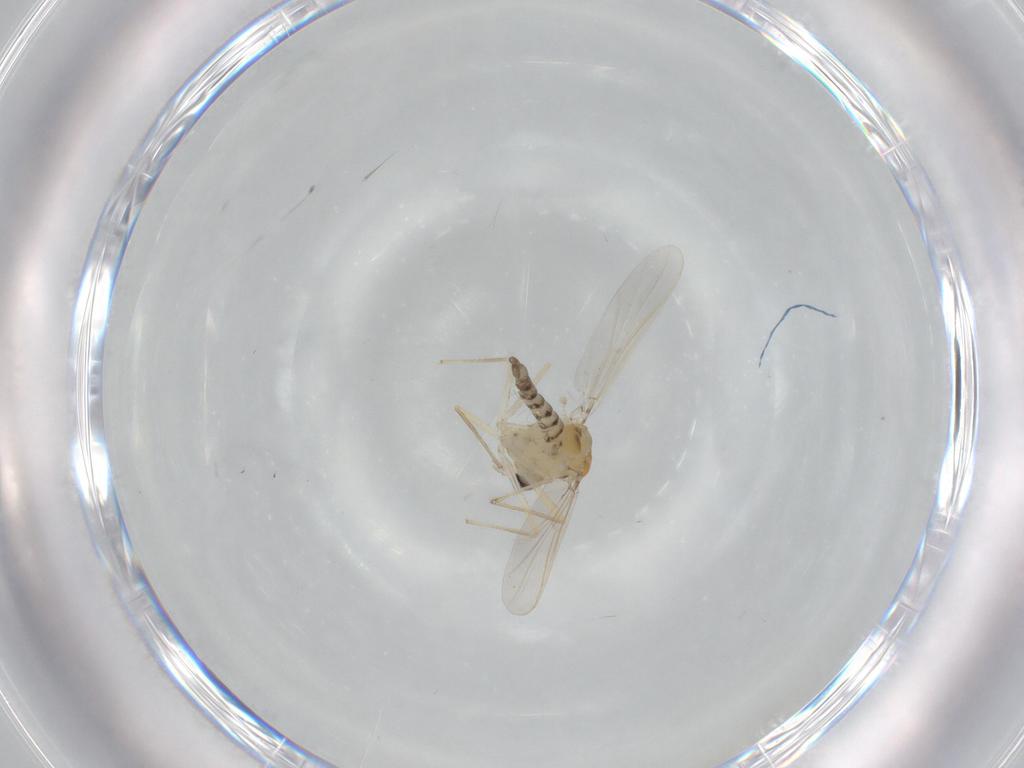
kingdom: Animalia
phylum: Arthropoda
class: Insecta
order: Diptera
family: Chironomidae
